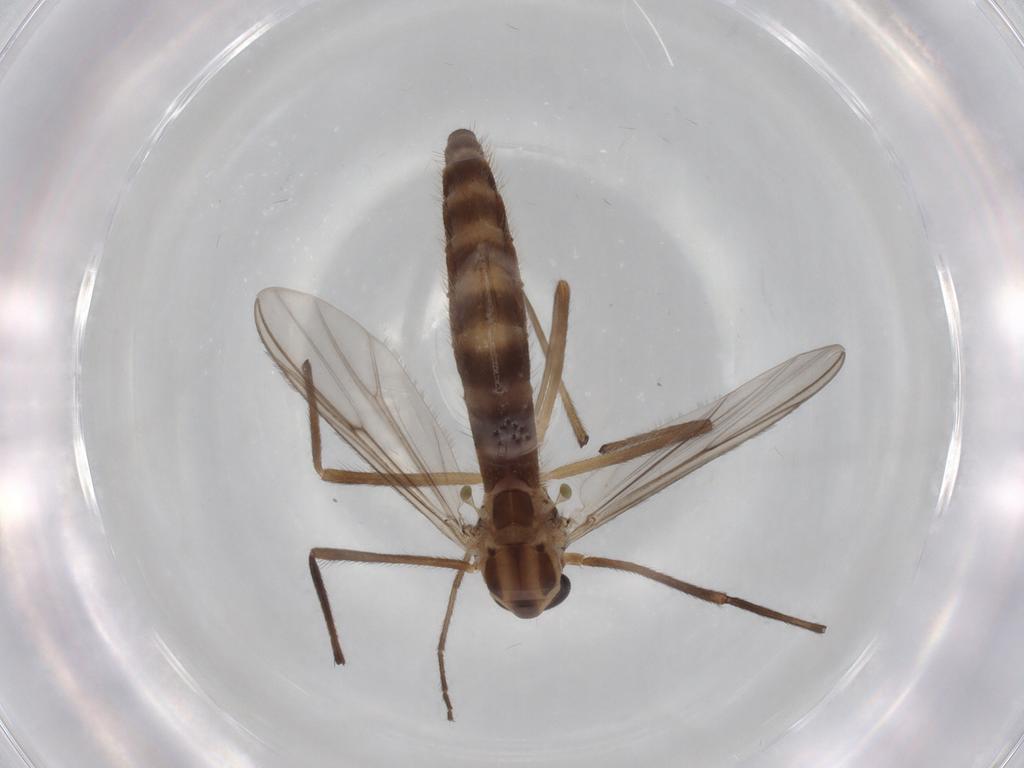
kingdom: Animalia
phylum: Arthropoda
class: Insecta
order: Diptera
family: Chironomidae
